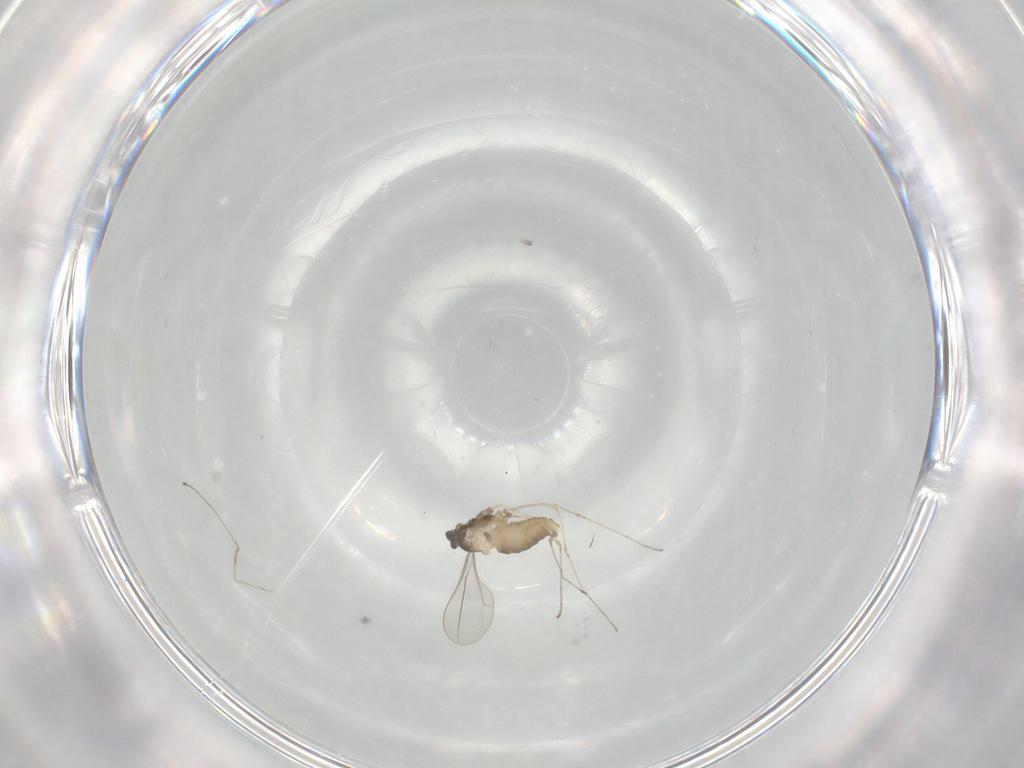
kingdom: Animalia
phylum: Arthropoda
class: Insecta
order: Diptera
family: Cecidomyiidae
